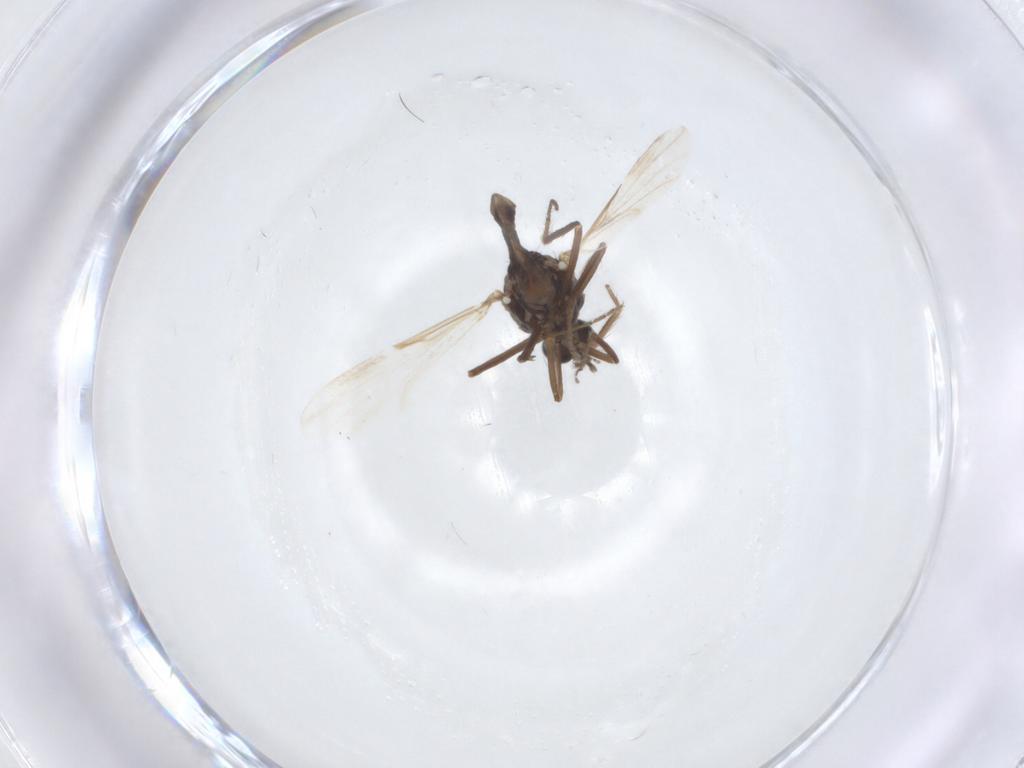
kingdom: Animalia
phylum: Arthropoda
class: Insecta
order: Diptera
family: Ceratopogonidae
